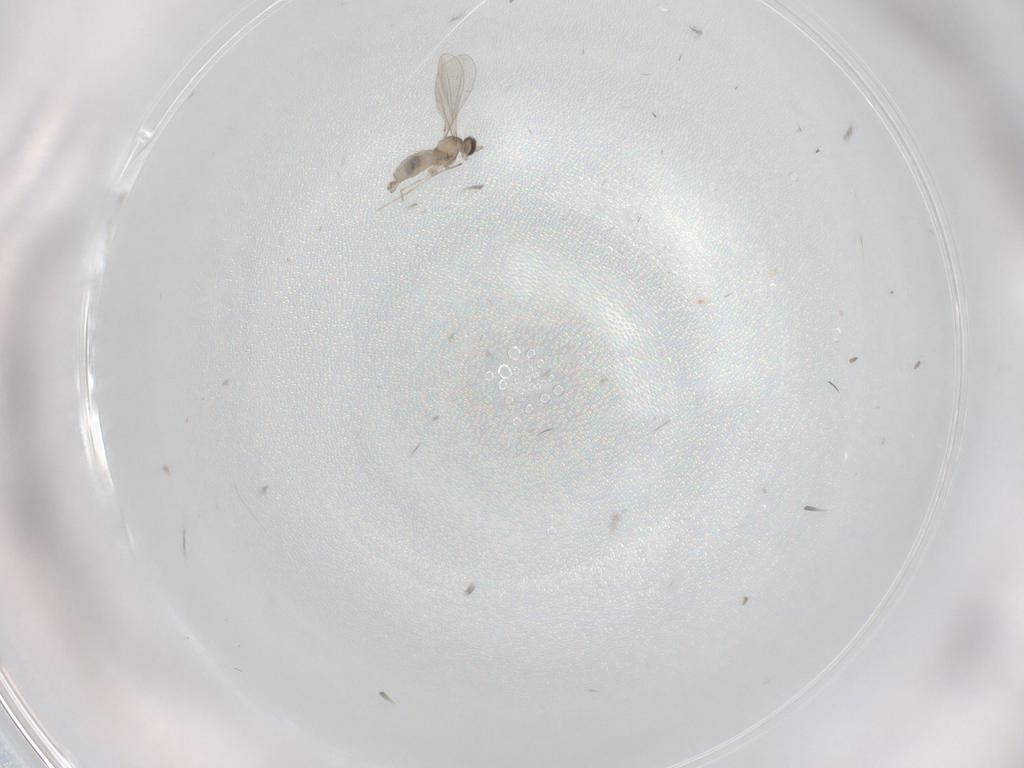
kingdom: Animalia
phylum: Arthropoda
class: Insecta
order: Diptera
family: Cecidomyiidae
